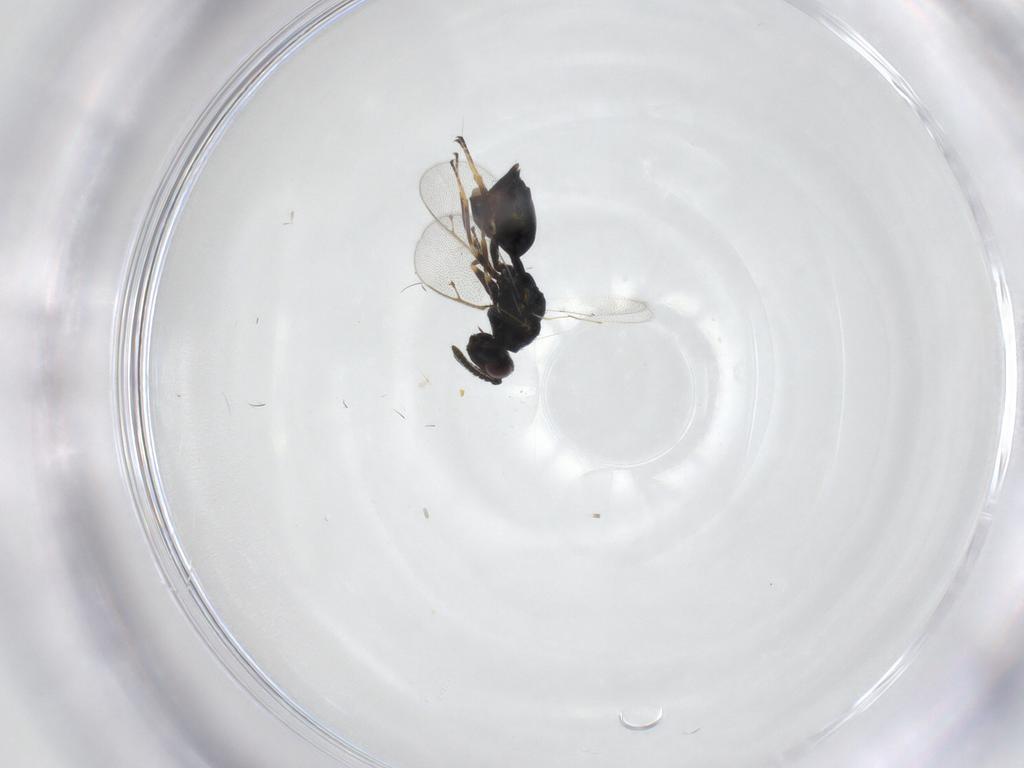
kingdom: Animalia
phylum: Arthropoda
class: Insecta
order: Hymenoptera
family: Pteromalidae
